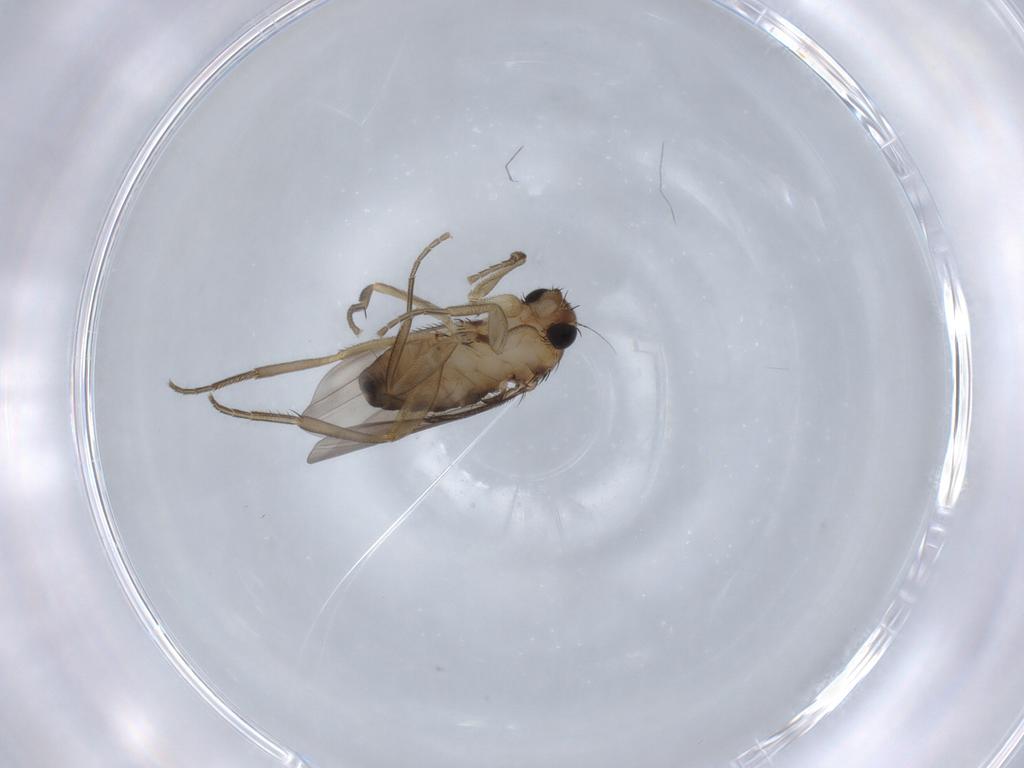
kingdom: Animalia
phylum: Arthropoda
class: Insecta
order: Diptera
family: Phoridae
